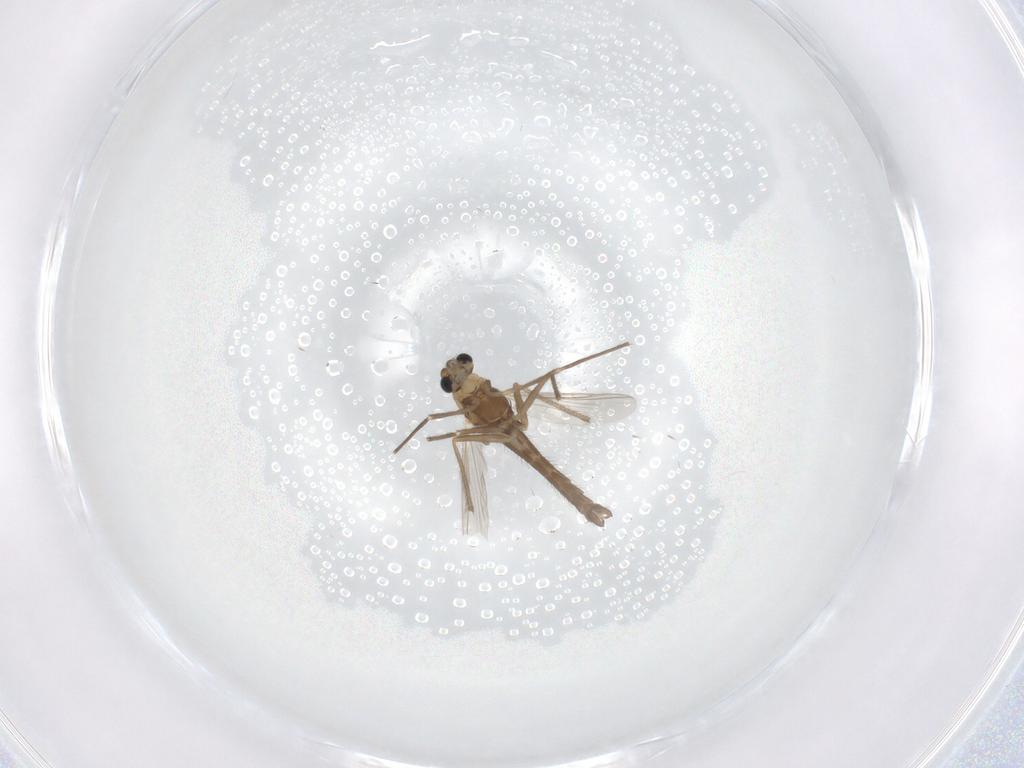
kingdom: Animalia
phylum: Arthropoda
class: Insecta
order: Diptera
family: Chironomidae
